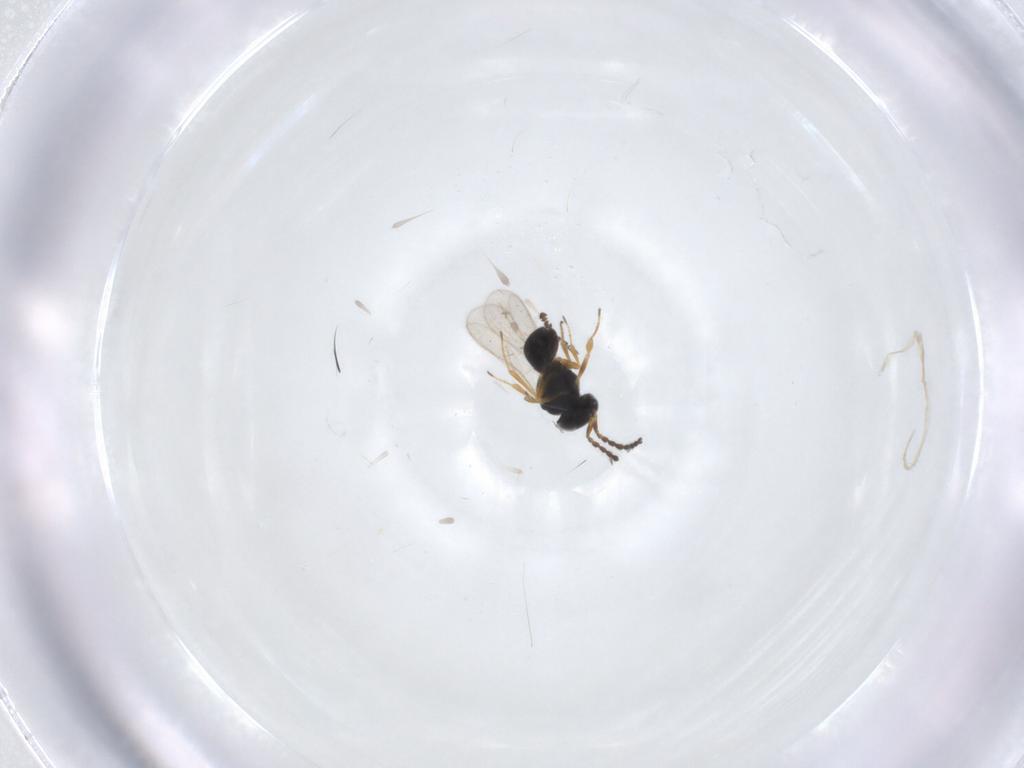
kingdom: Animalia
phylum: Arthropoda
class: Insecta
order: Hymenoptera
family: Scelionidae
